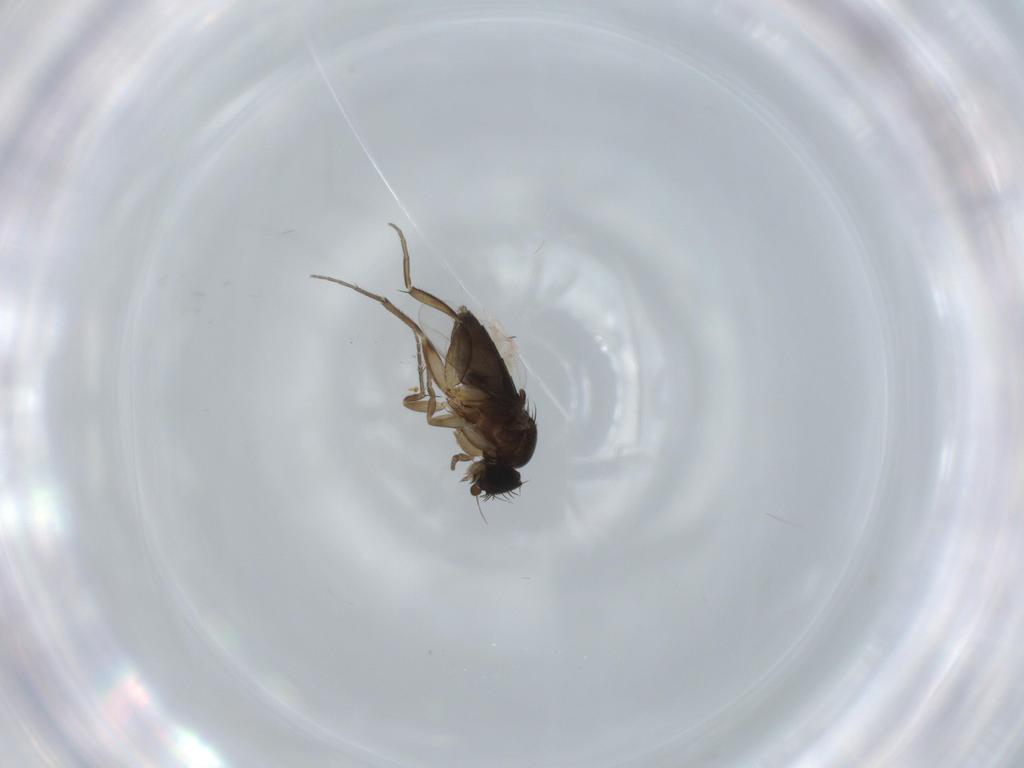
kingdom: Animalia
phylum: Arthropoda
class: Insecta
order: Diptera
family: Phoridae
